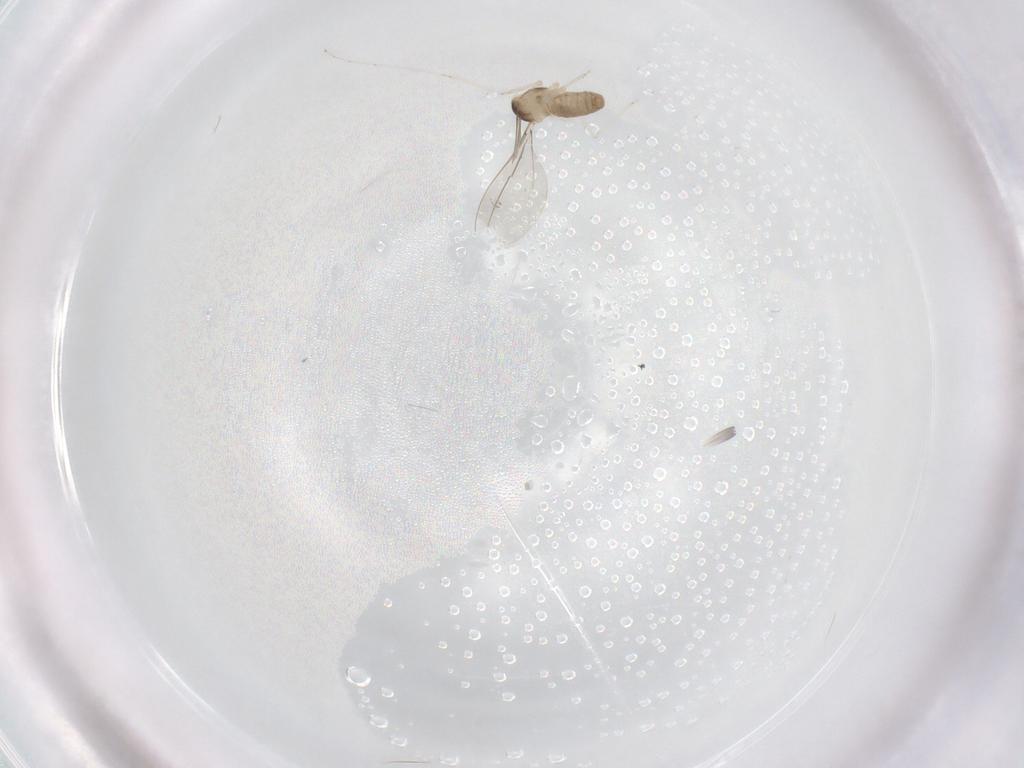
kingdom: Animalia
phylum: Arthropoda
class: Insecta
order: Diptera
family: Cecidomyiidae
